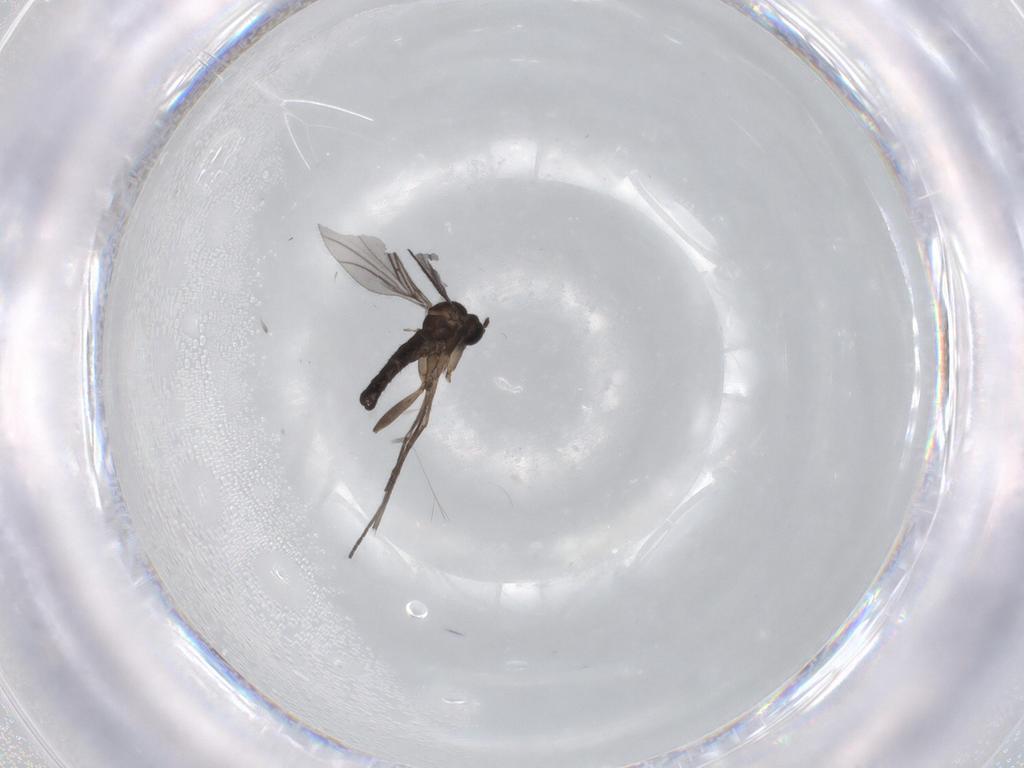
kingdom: Animalia
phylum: Arthropoda
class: Insecta
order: Diptera
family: Sciaridae
